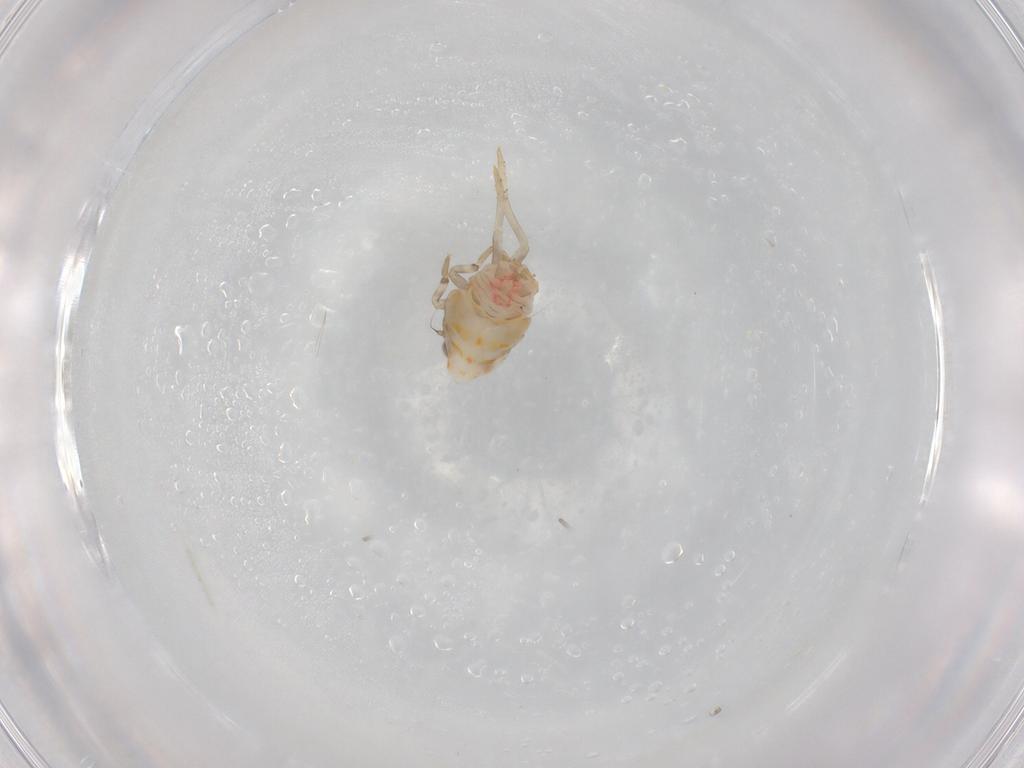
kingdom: Animalia
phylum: Arthropoda
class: Insecta
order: Hemiptera
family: Ricaniidae
